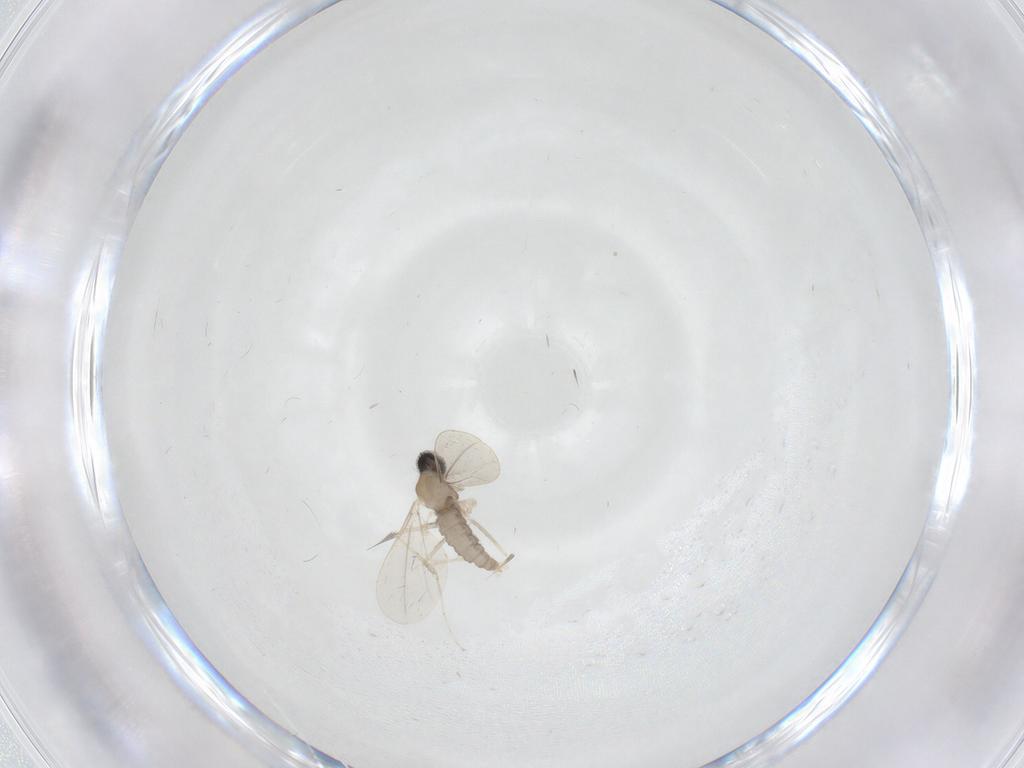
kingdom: Animalia
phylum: Arthropoda
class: Insecta
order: Diptera
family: Cecidomyiidae
